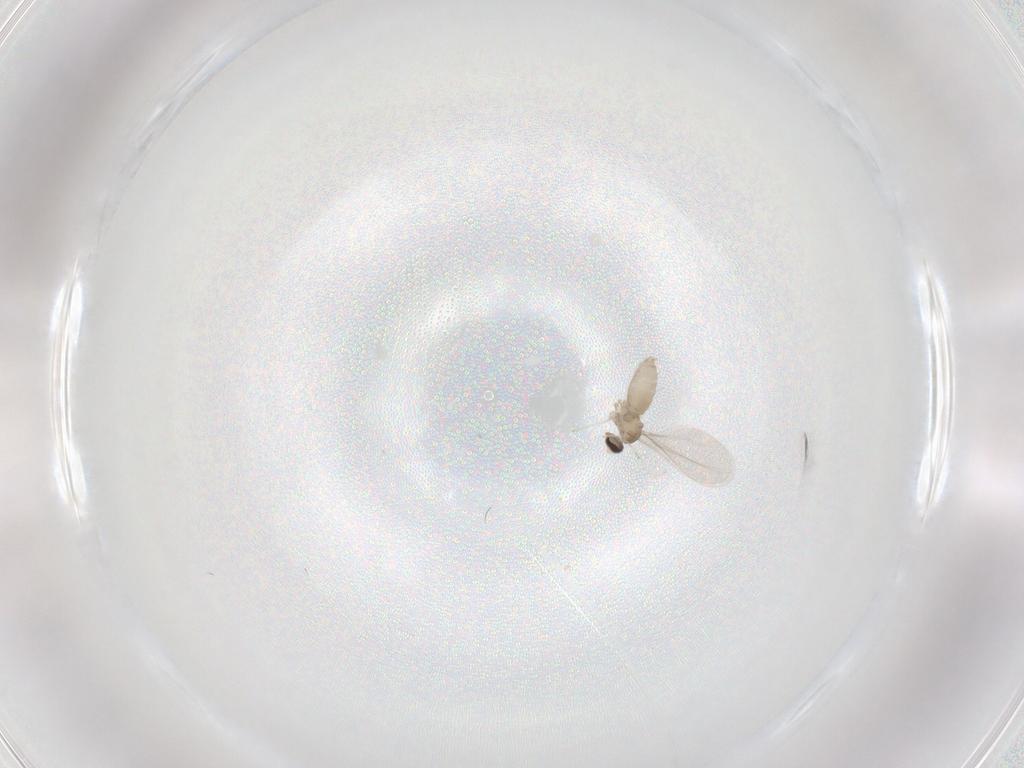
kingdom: Animalia
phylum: Arthropoda
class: Insecta
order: Diptera
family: Cecidomyiidae
